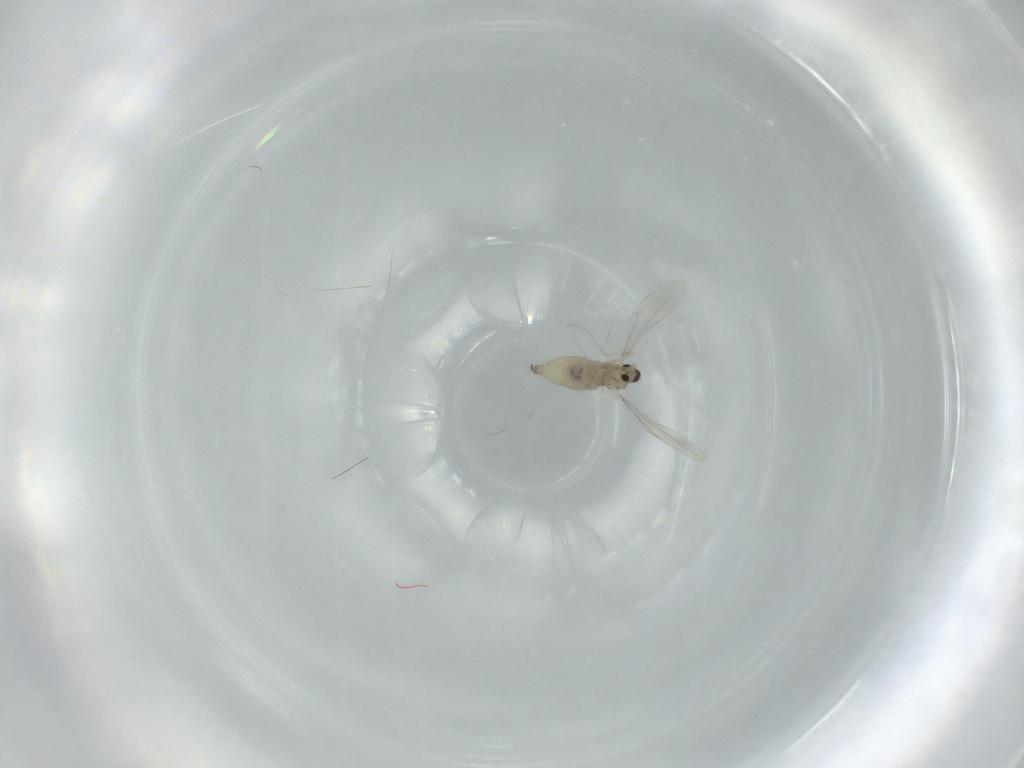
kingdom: Animalia
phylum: Arthropoda
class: Insecta
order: Diptera
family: Cecidomyiidae
